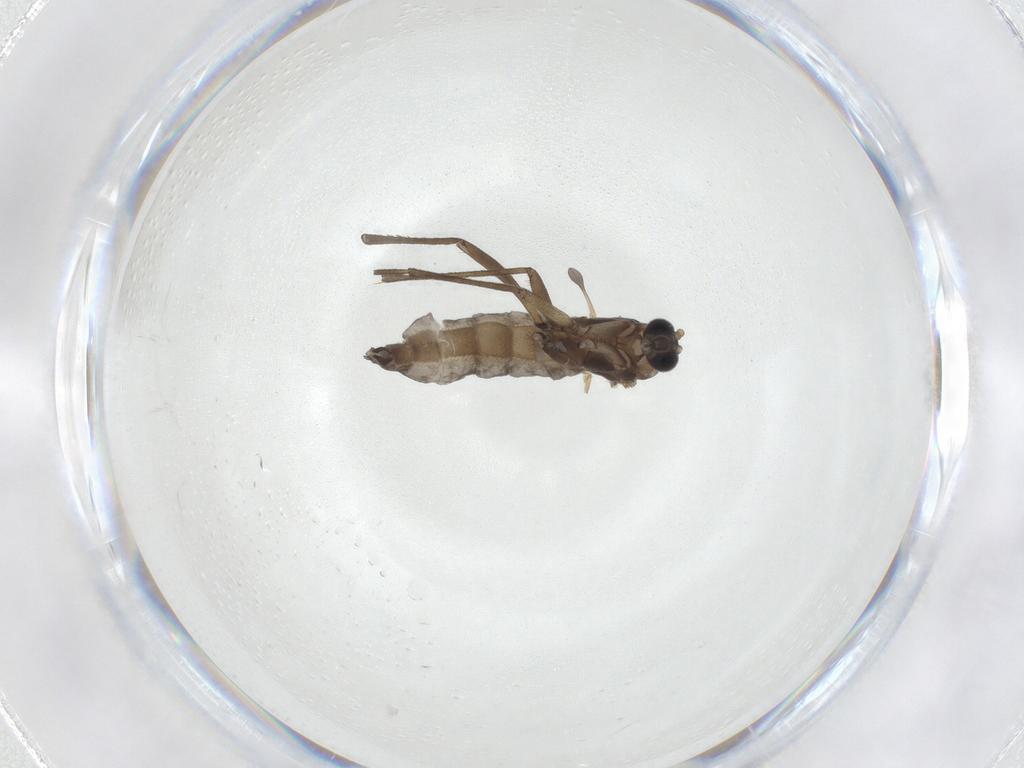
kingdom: Animalia
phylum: Arthropoda
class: Insecta
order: Diptera
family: Sciaridae
